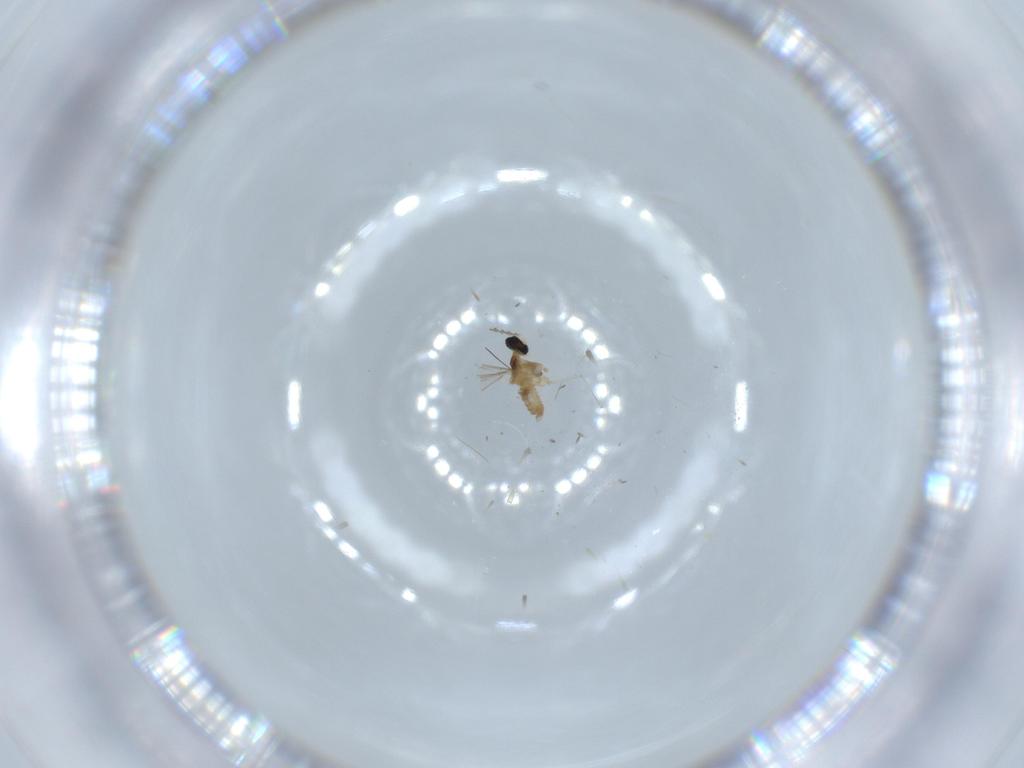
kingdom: Animalia
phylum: Arthropoda
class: Insecta
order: Diptera
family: Cecidomyiidae
